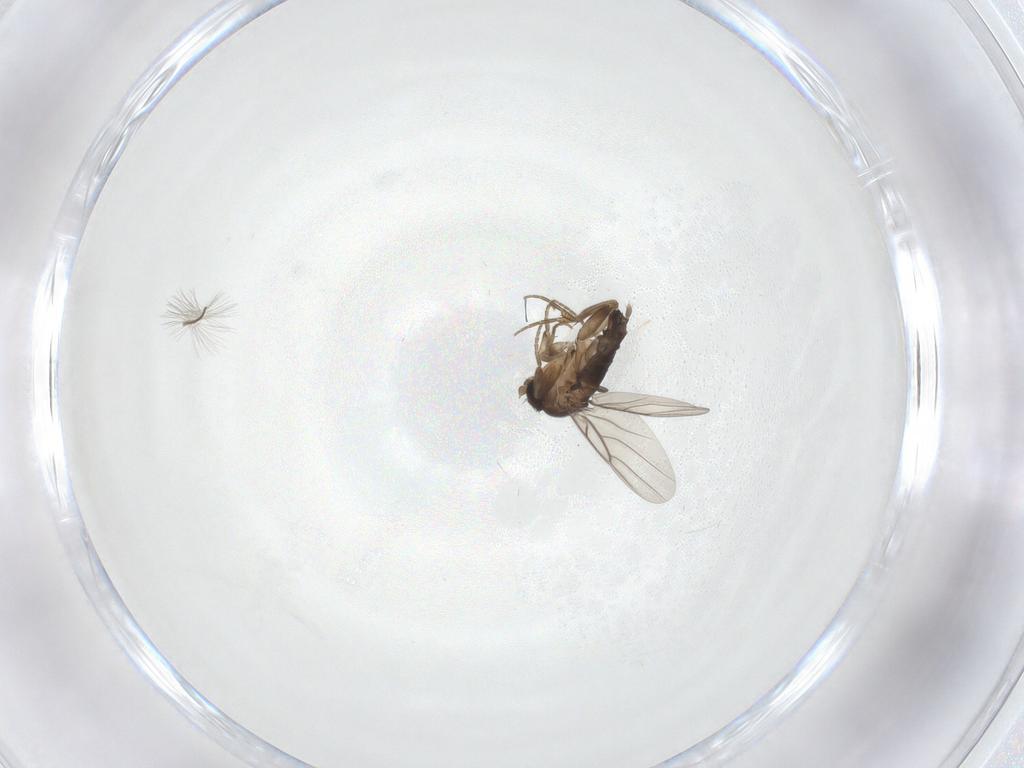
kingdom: Animalia
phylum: Arthropoda
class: Insecta
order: Diptera
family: Phoridae
